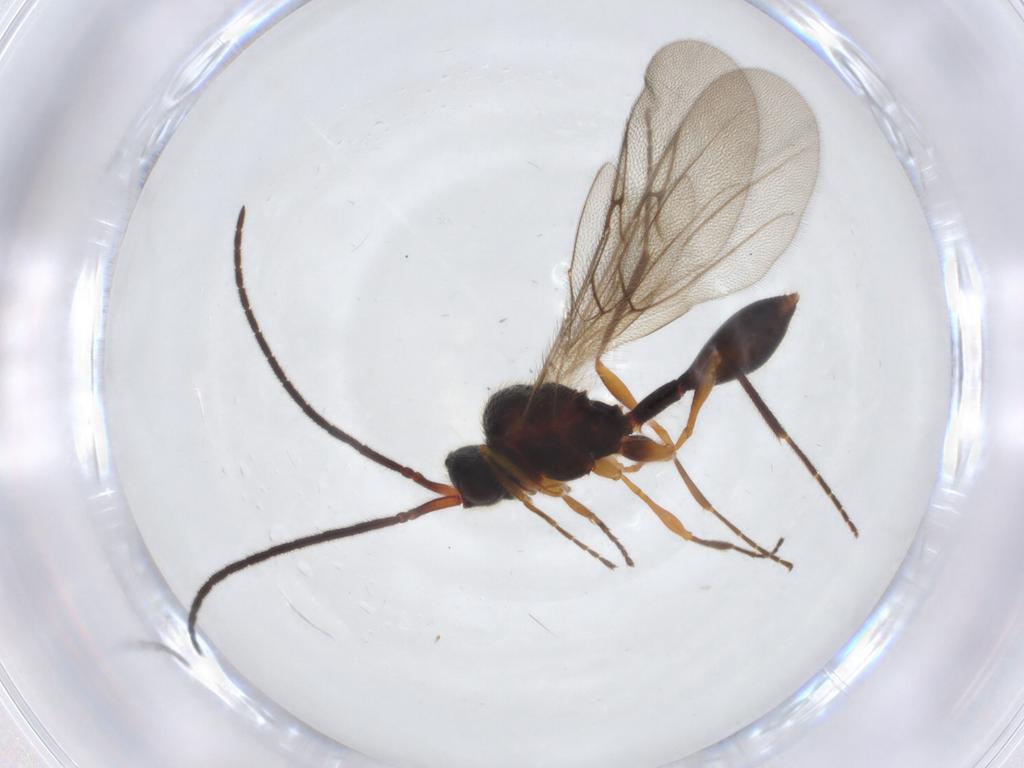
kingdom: Animalia
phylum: Arthropoda
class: Insecta
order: Hymenoptera
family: Diapriidae
